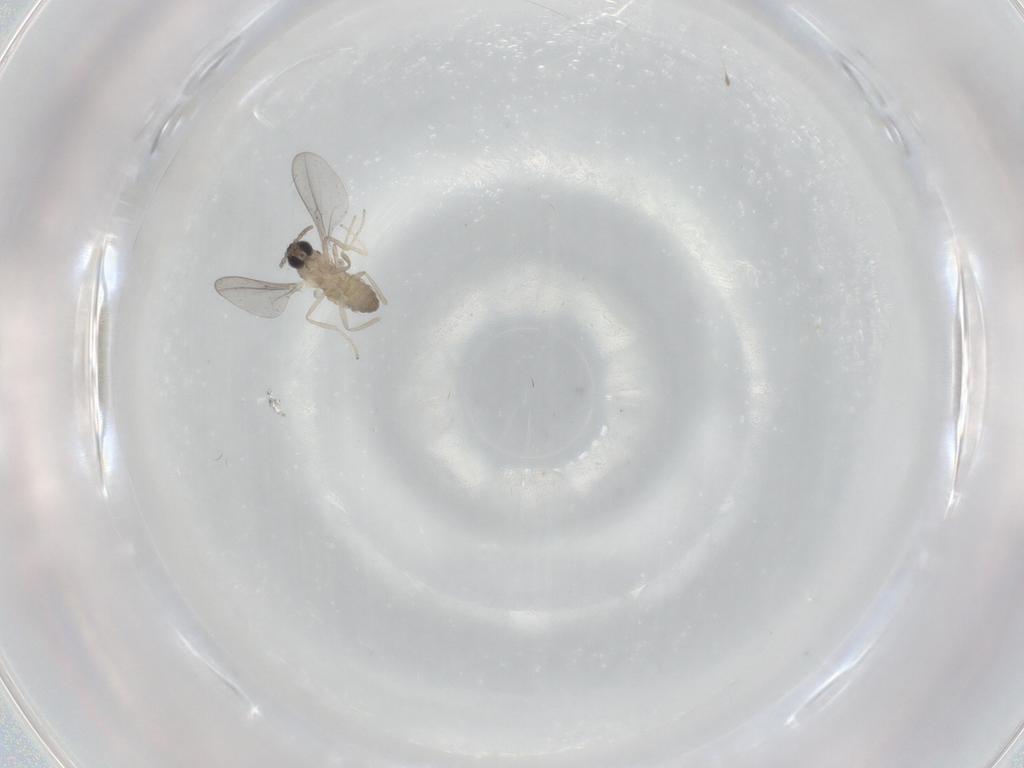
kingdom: Animalia
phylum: Arthropoda
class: Insecta
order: Diptera
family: Cecidomyiidae
